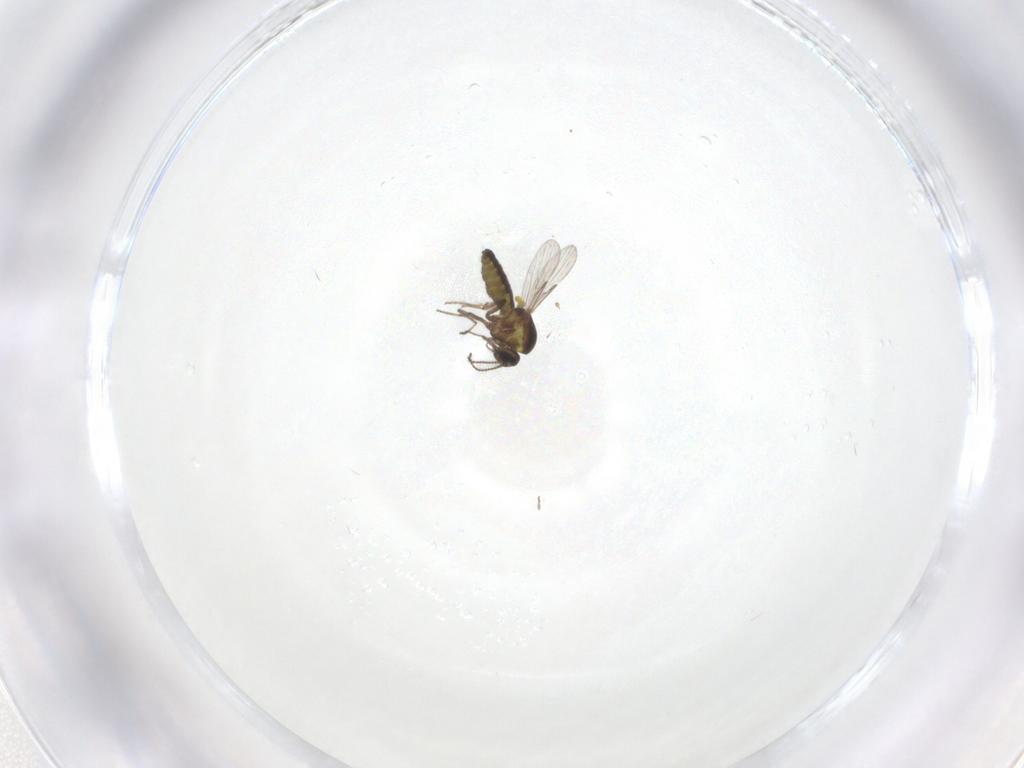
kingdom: Animalia
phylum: Arthropoda
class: Insecta
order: Diptera
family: Ceratopogonidae
